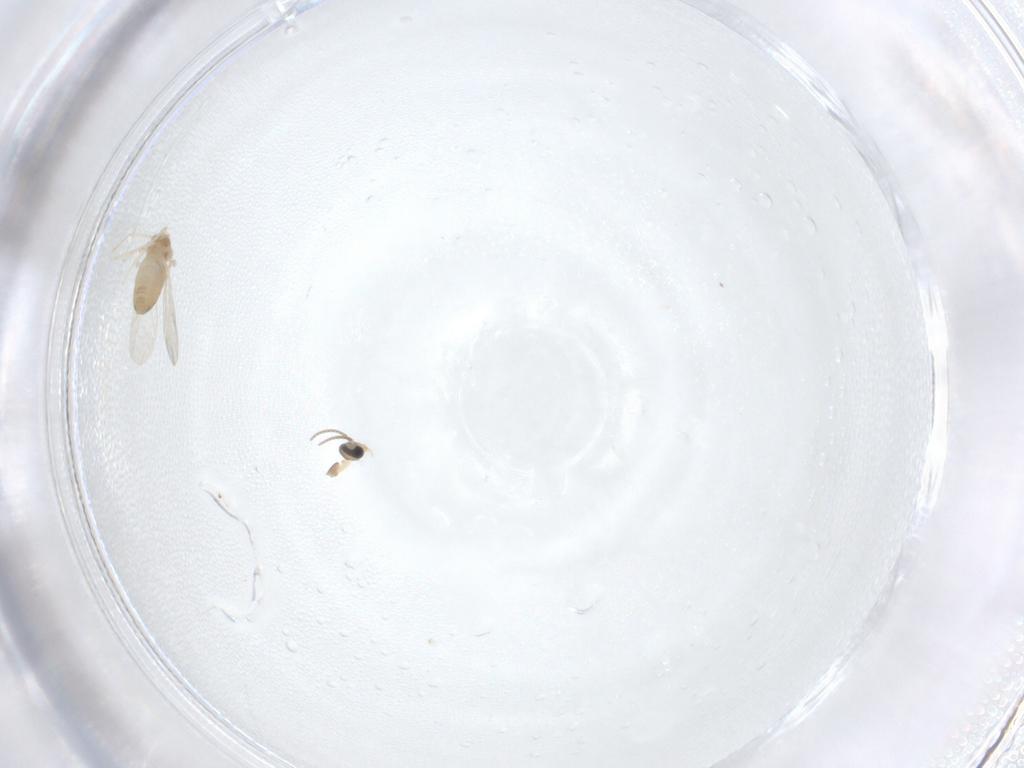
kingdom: Animalia
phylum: Arthropoda
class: Insecta
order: Diptera
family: Cecidomyiidae
